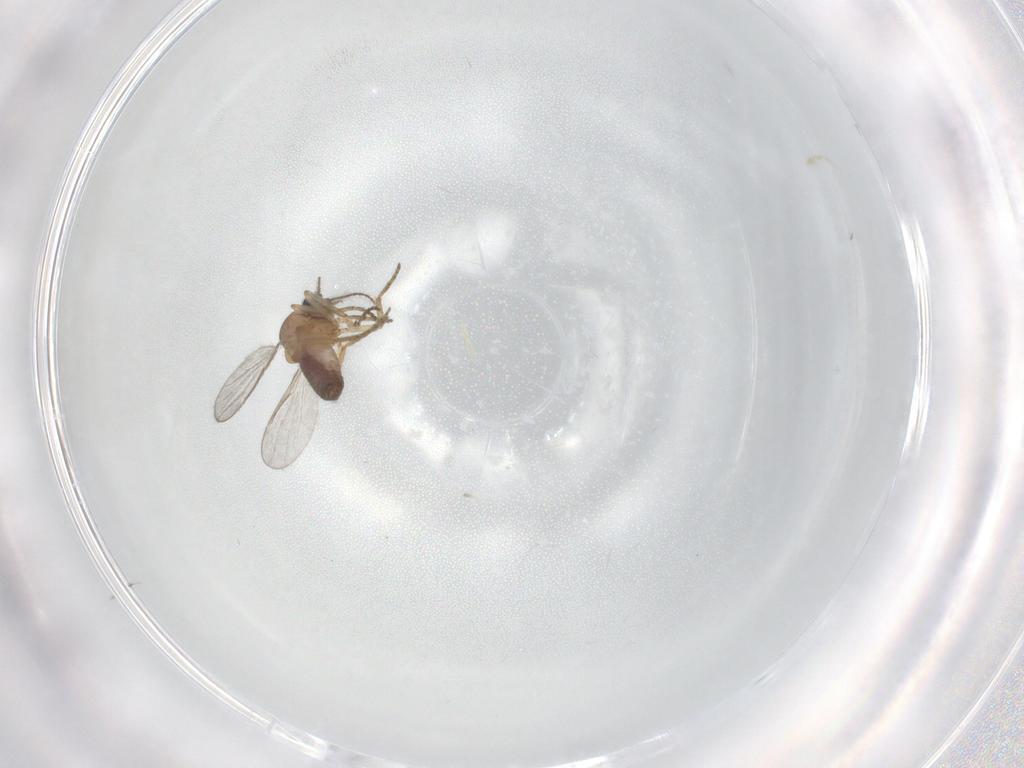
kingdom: Animalia
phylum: Arthropoda
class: Insecta
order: Diptera
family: Ceratopogonidae
